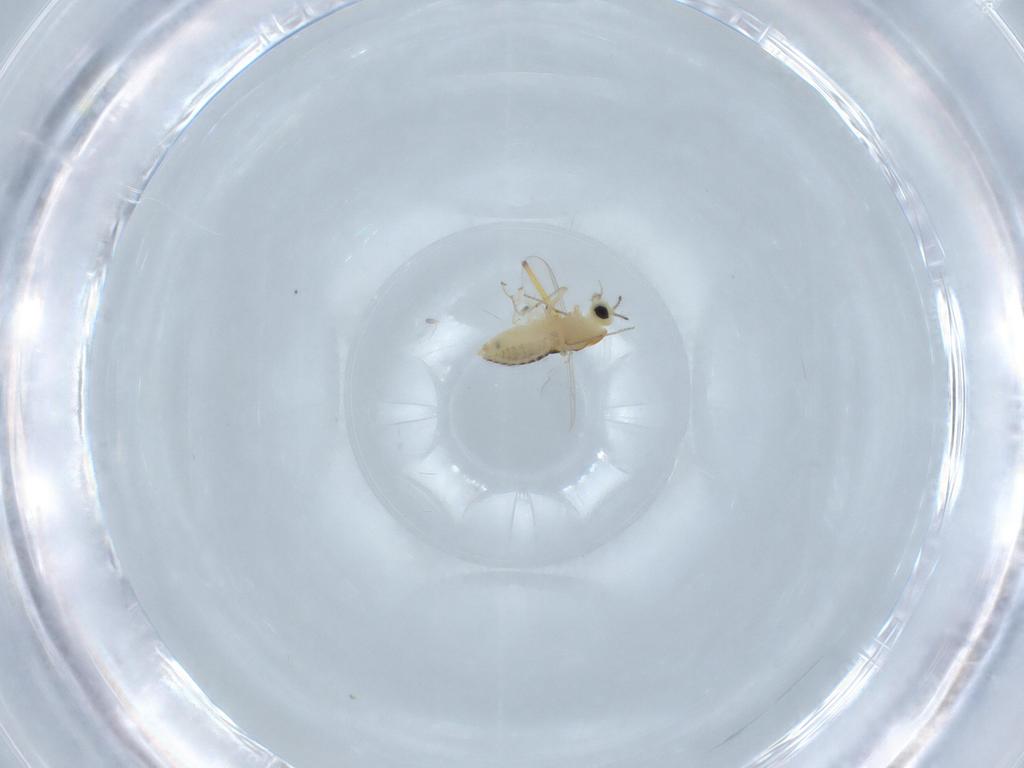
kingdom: Animalia
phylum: Arthropoda
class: Insecta
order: Diptera
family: Chironomidae
